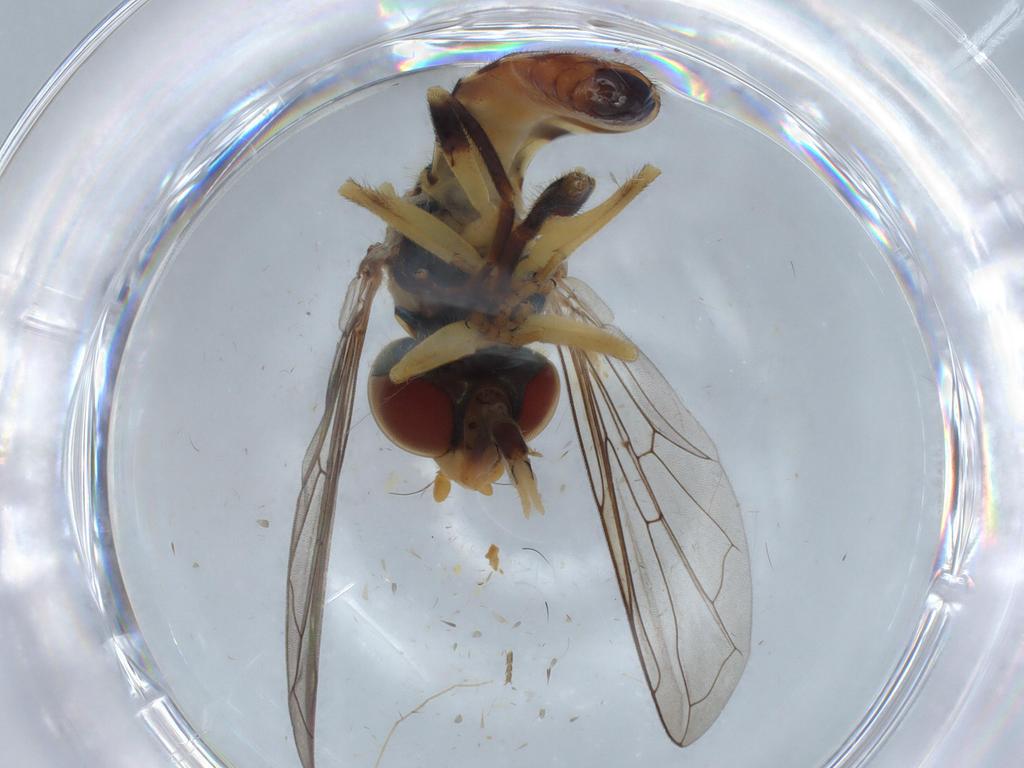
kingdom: Animalia
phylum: Arthropoda
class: Insecta
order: Diptera
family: Syrphidae
